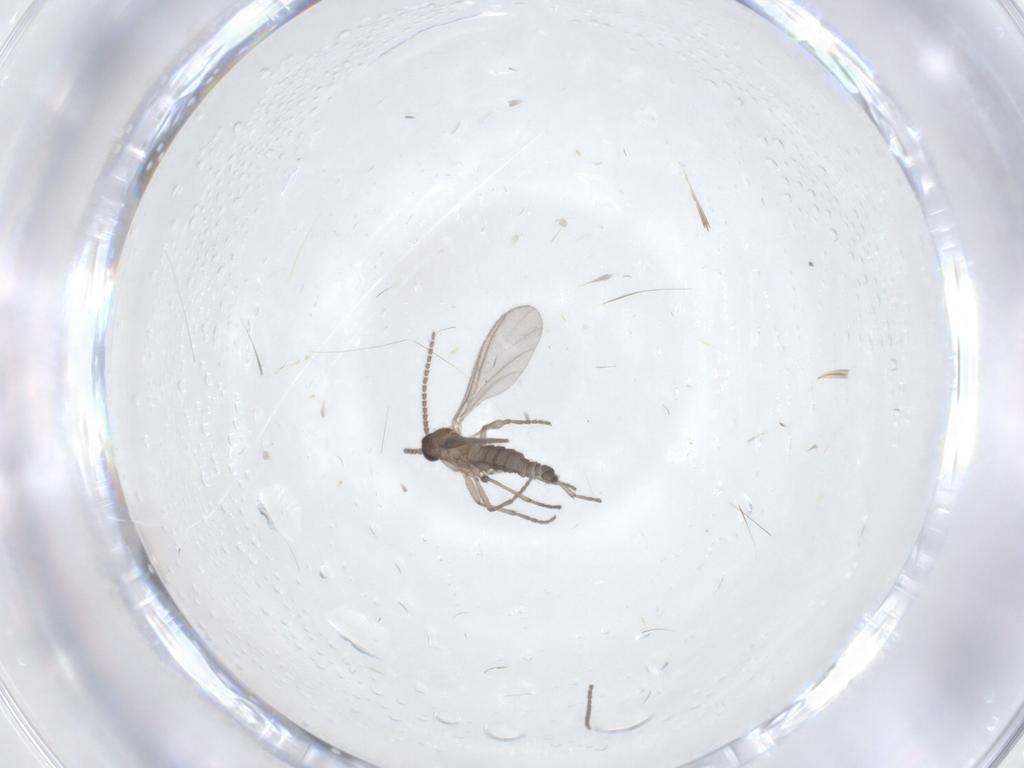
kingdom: Animalia
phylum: Arthropoda
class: Insecta
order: Diptera
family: Sciaridae
